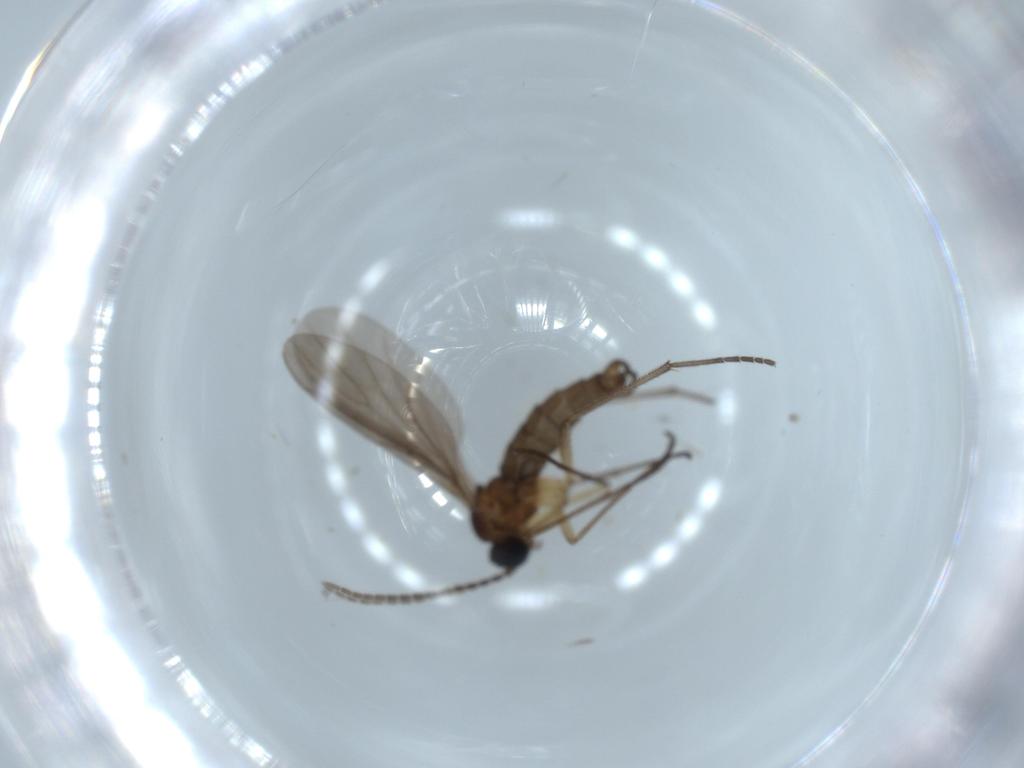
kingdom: Animalia
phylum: Arthropoda
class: Insecta
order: Diptera
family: Sciaridae
